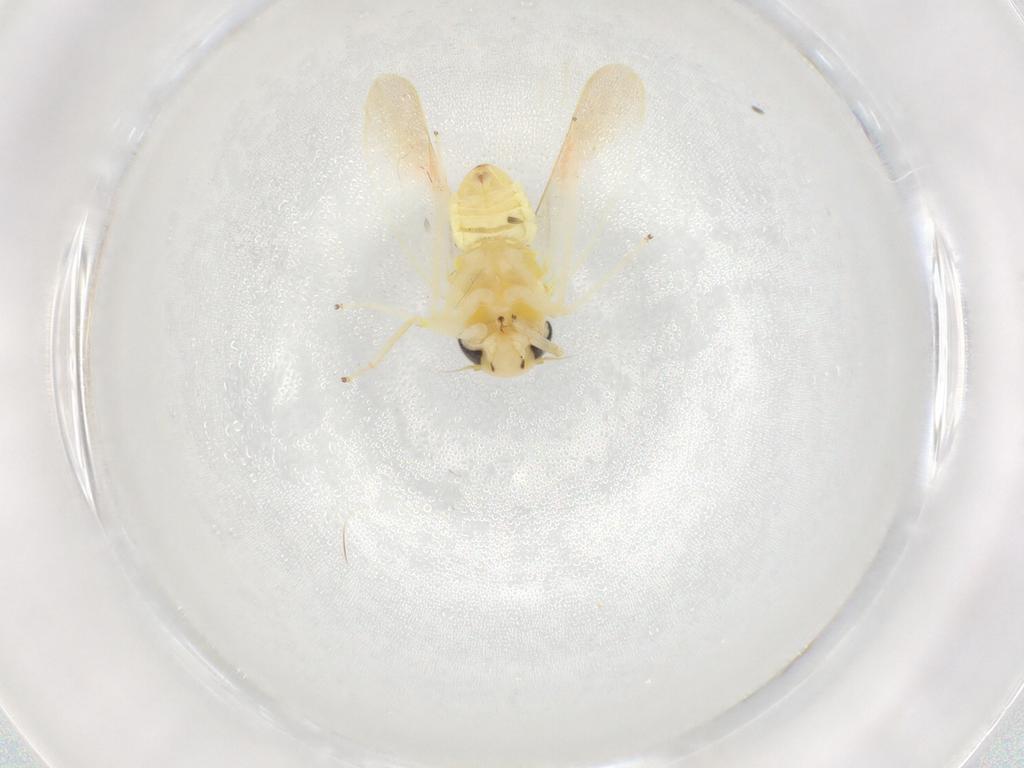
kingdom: Animalia
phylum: Arthropoda
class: Insecta
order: Hemiptera
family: Cicadellidae
